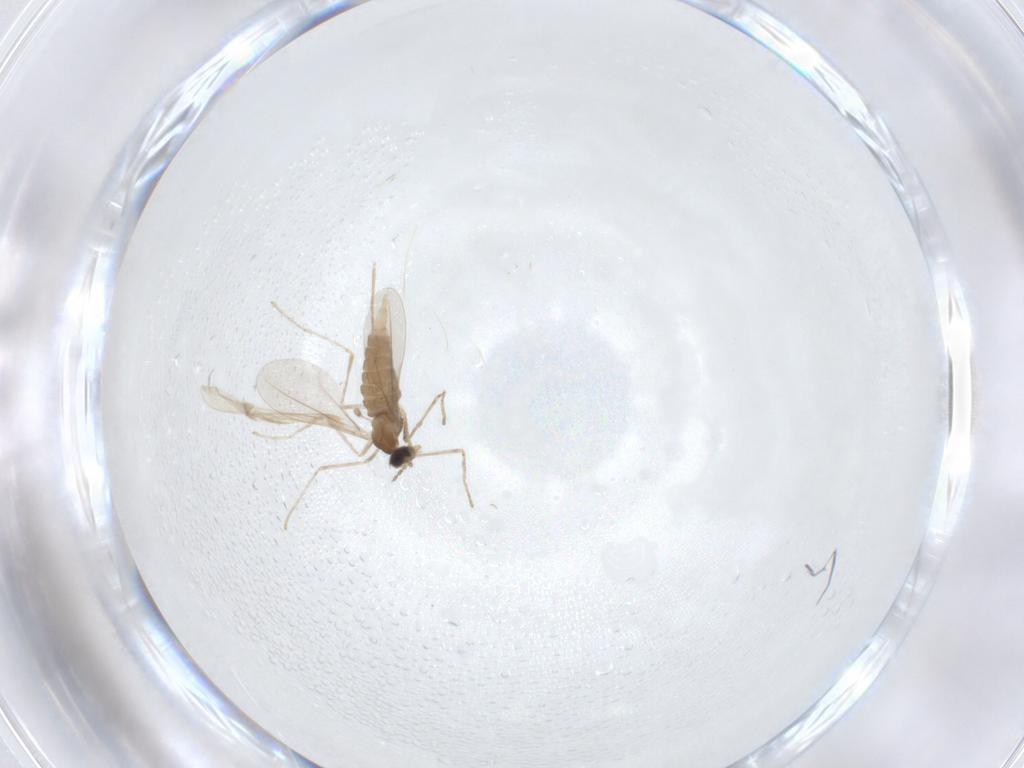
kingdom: Animalia
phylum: Arthropoda
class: Insecta
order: Diptera
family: Cecidomyiidae
